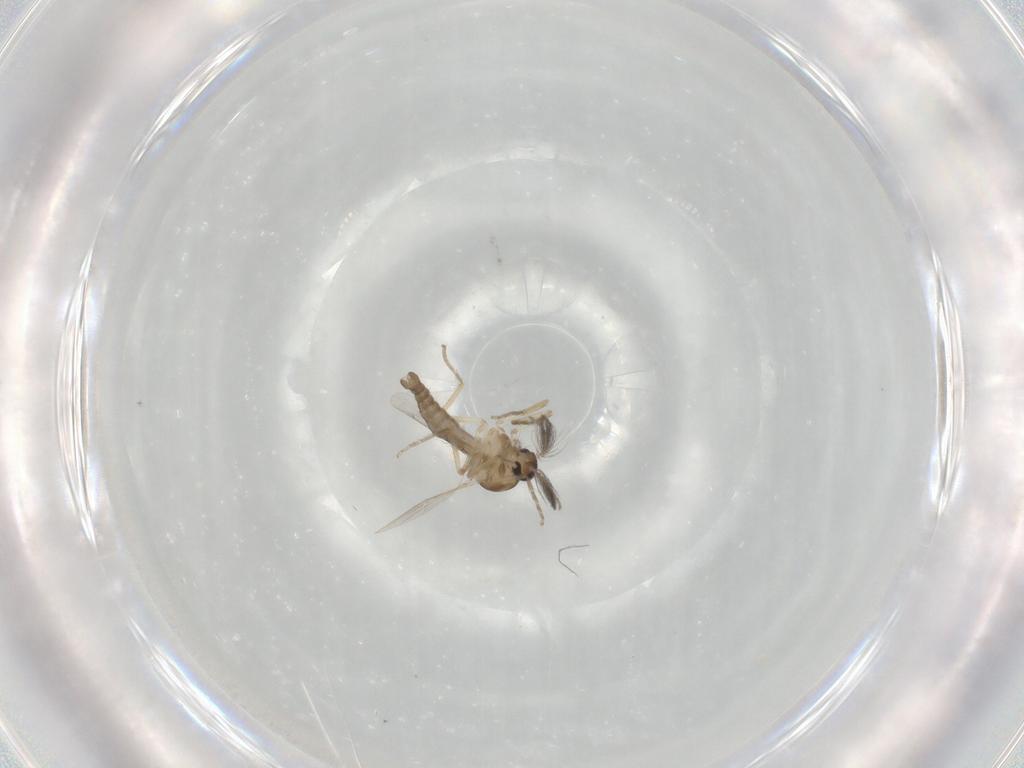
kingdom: Animalia
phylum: Arthropoda
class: Insecta
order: Diptera
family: Ceratopogonidae
